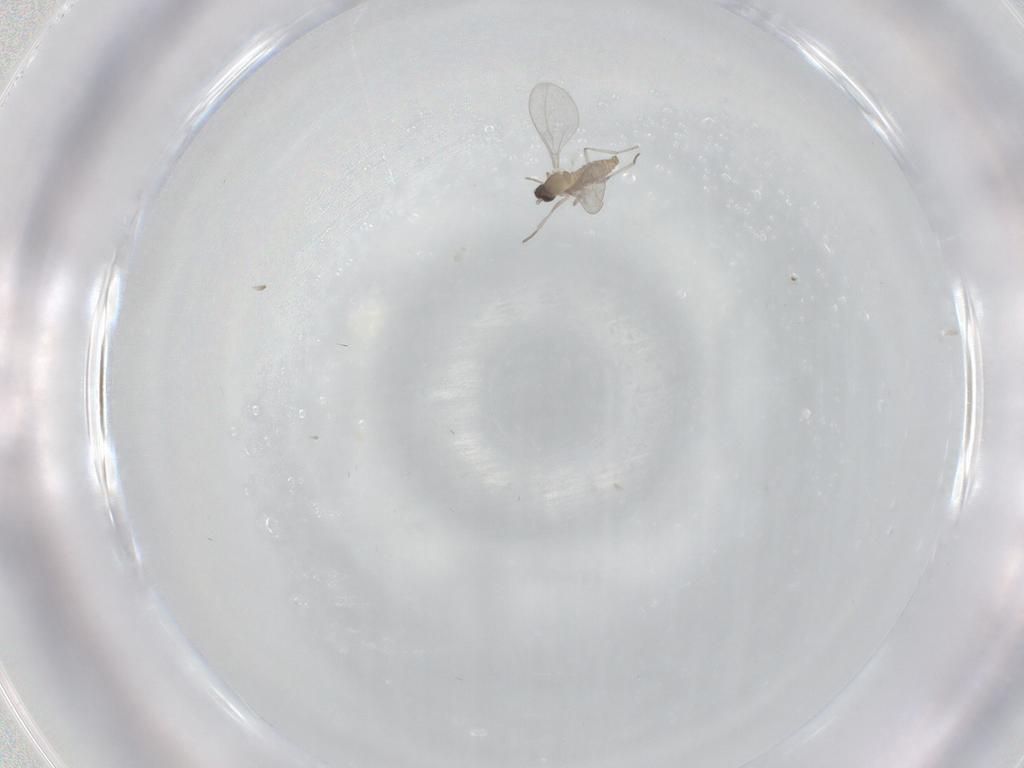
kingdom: Animalia
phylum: Arthropoda
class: Insecta
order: Diptera
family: Cecidomyiidae
